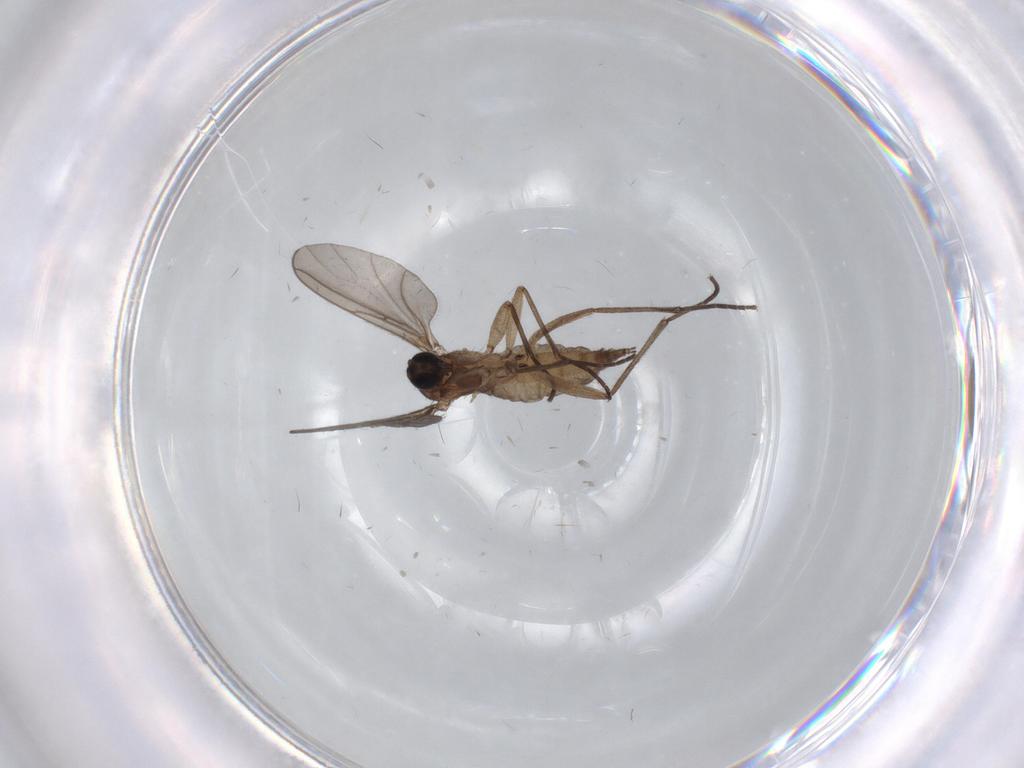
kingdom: Animalia
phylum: Arthropoda
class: Insecta
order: Diptera
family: Sciaridae
